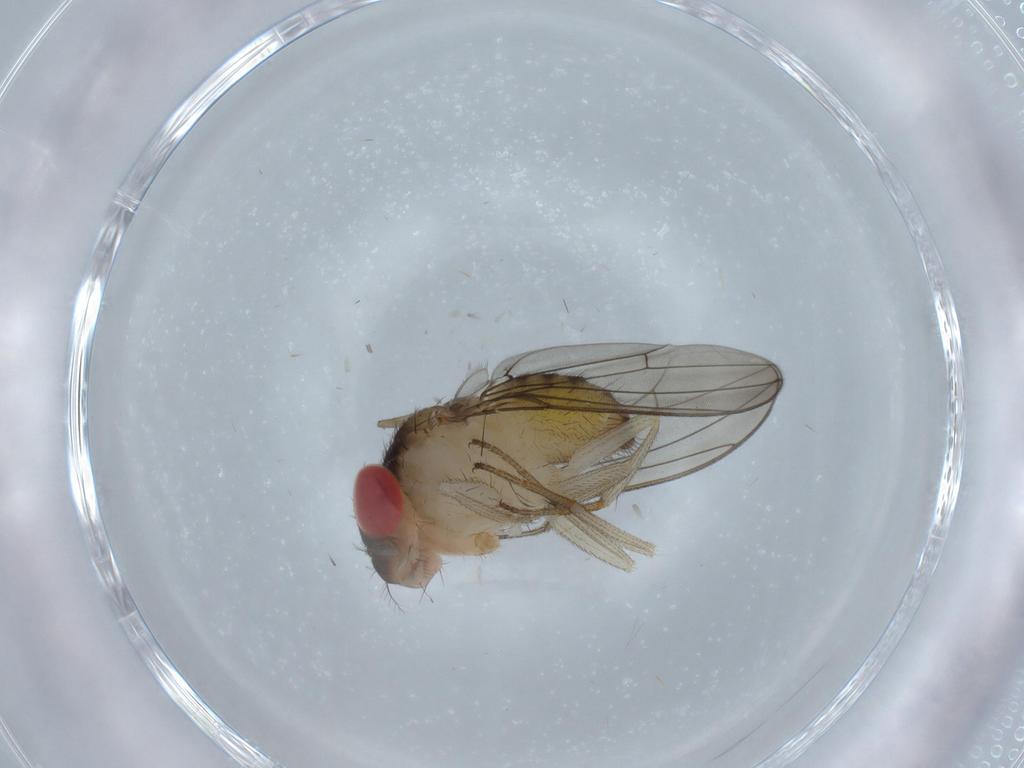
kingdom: Animalia
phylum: Arthropoda
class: Insecta
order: Diptera
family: Drosophilidae
